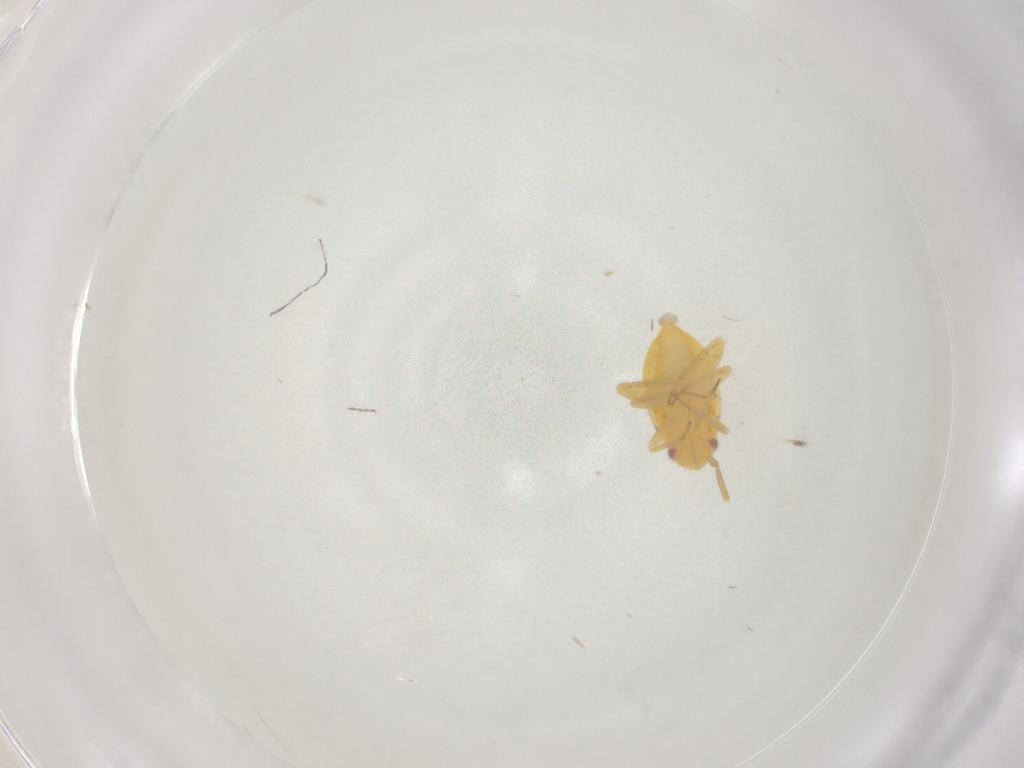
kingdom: Animalia
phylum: Arthropoda
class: Insecta
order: Hemiptera
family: Miridae
